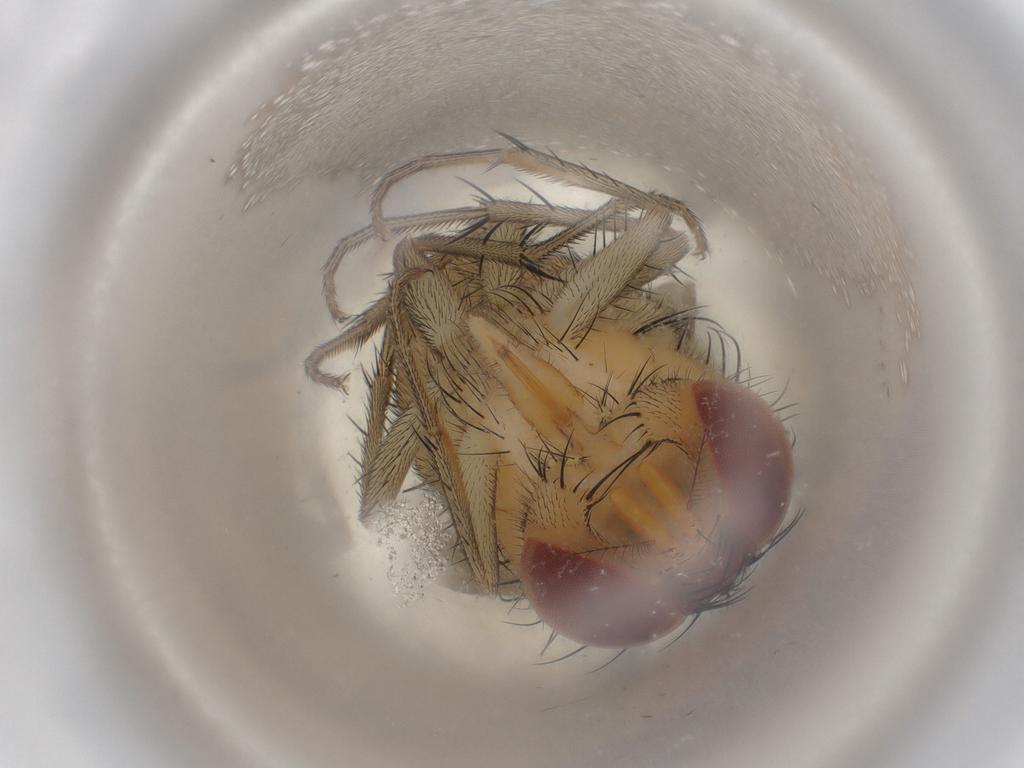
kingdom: Animalia
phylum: Arthropoda
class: Insecta
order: Diptera
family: Calliphoridae
